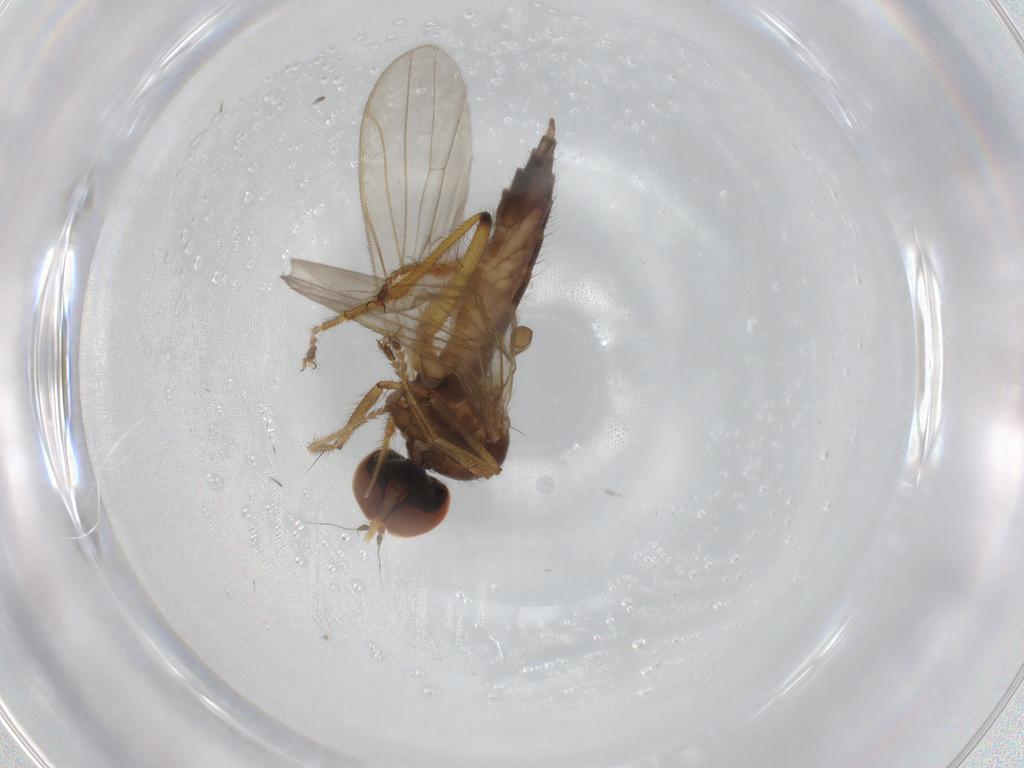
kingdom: Animalia
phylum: Arthropoda
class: Insecta
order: Diptera
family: Hybotidae
